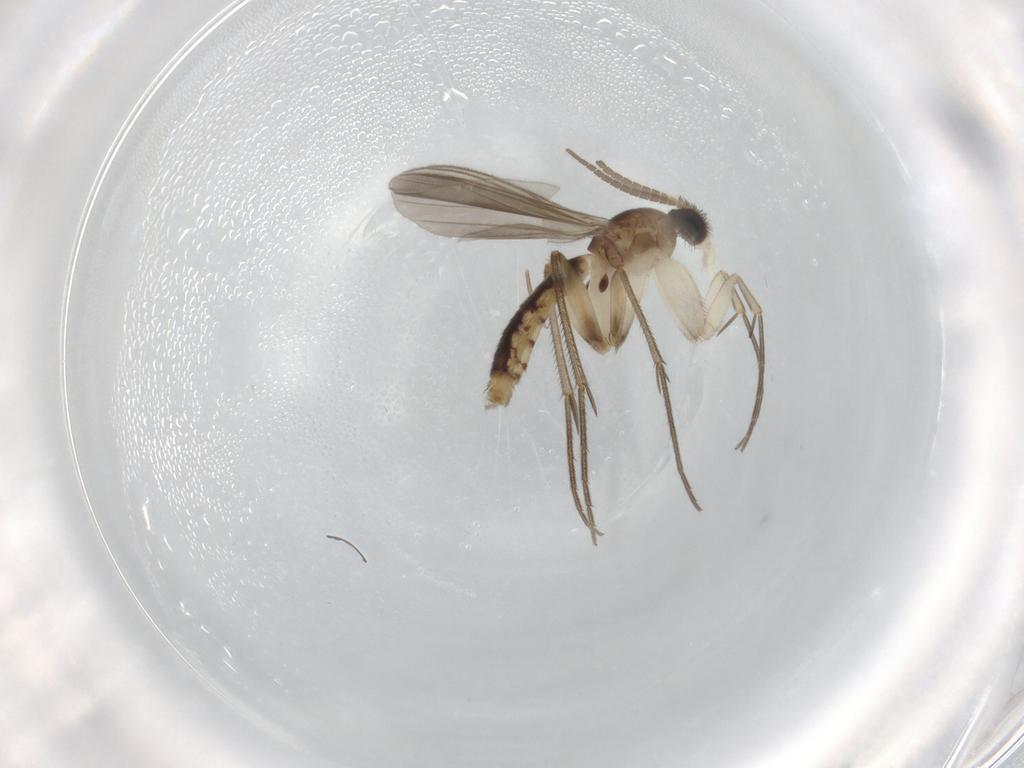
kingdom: Animalia
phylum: Arthropoda
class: Insecta
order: Diptera
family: Mycetophilidae
